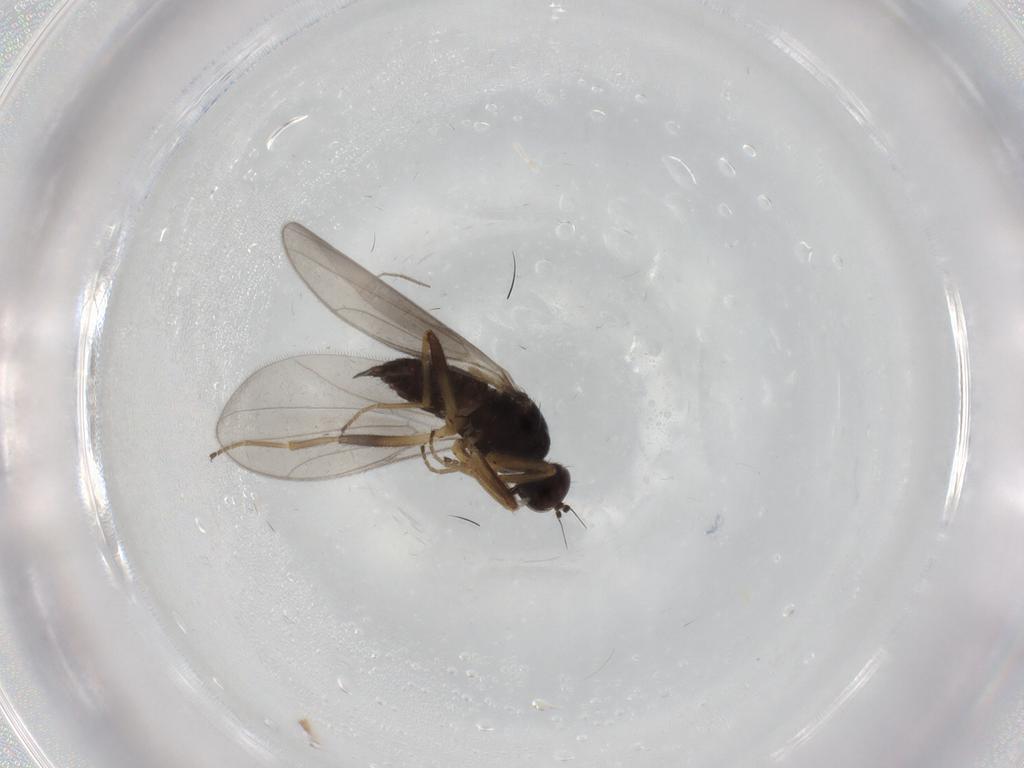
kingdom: Animalia
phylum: Arthropoda
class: Insecta
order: Diptera
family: Hybotidae
